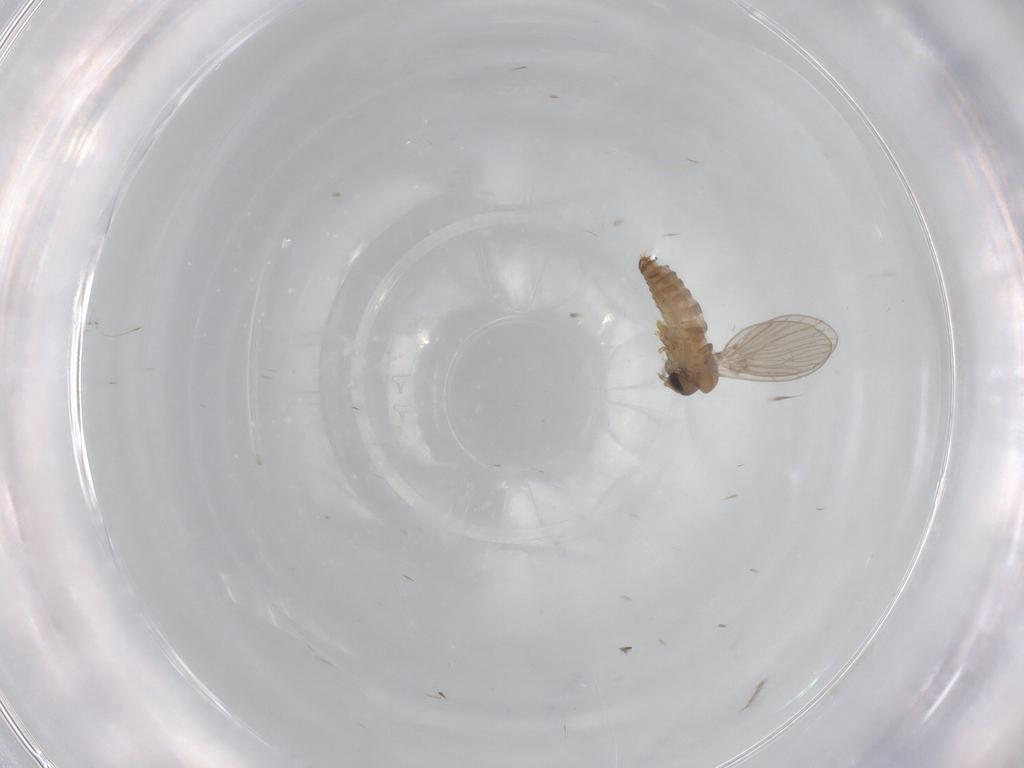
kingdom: Animalia
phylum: Arthropoda
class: Insecta
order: Diptera
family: Psychodidae
